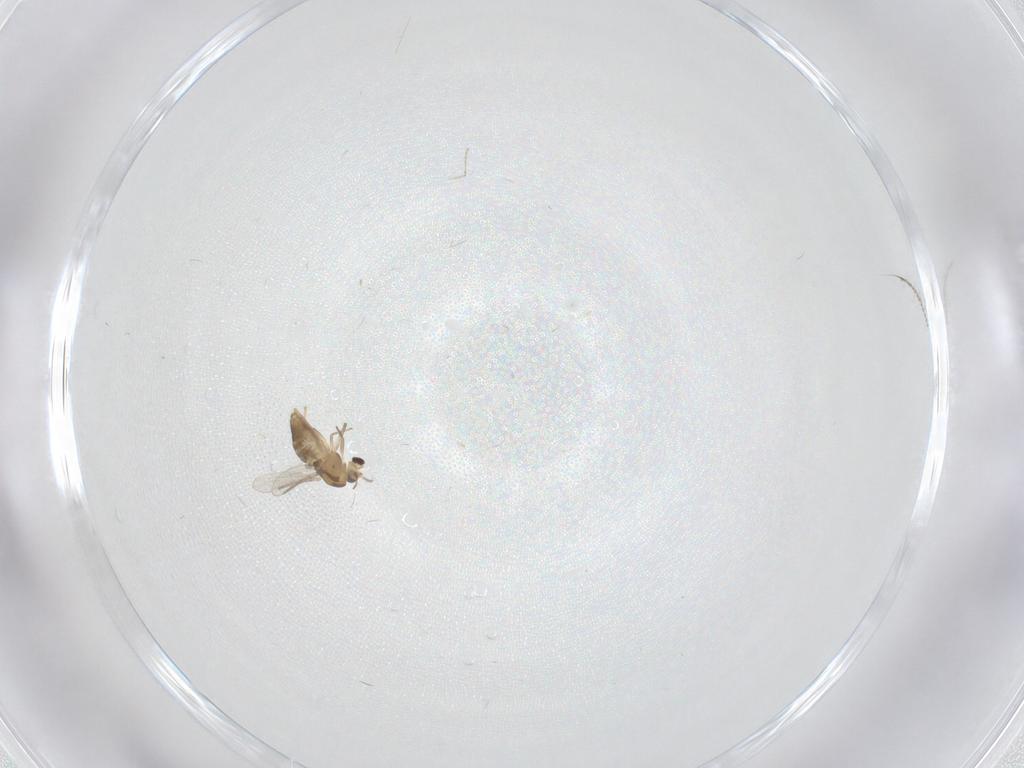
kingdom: Animalia
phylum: Arthropoda
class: Insecta
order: Diptera
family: Chironomidae
